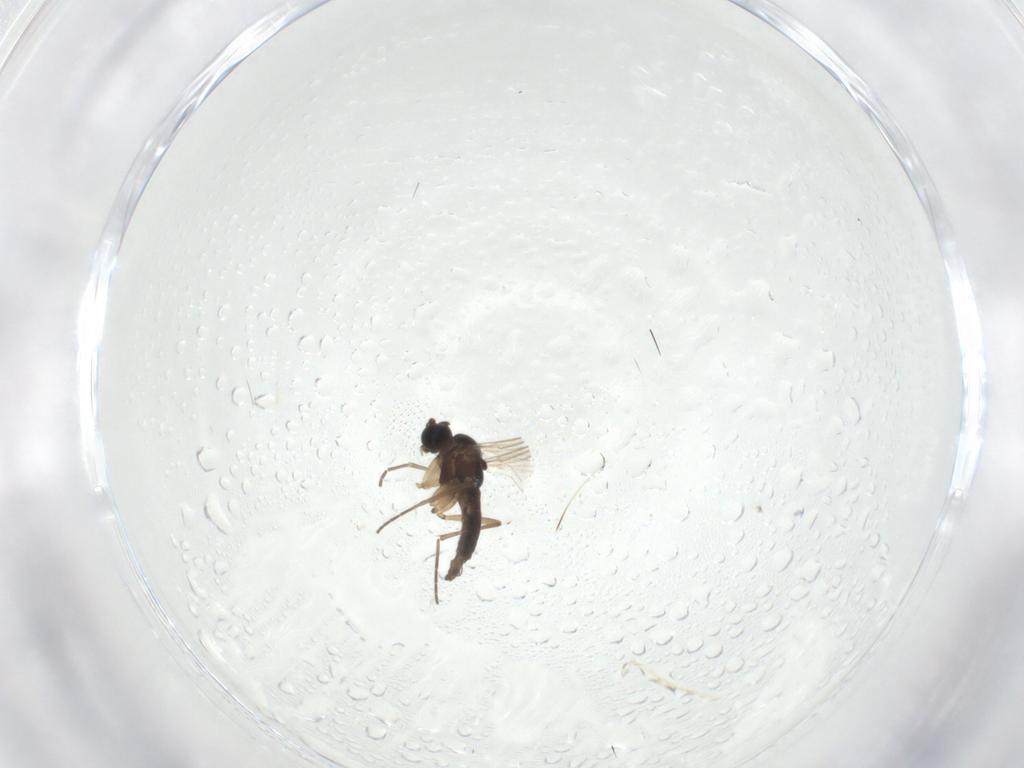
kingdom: Animalia
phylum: Arthropoda
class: Insecta
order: Diptera
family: Sciaridae
